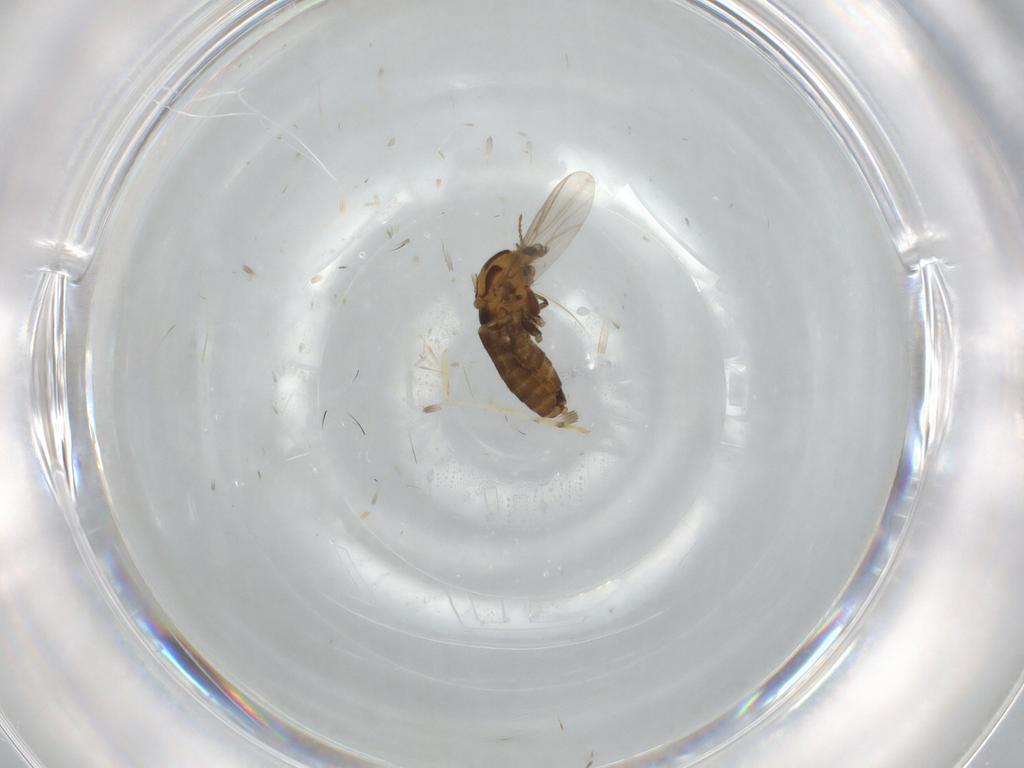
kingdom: Animalia
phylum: Arthropoda
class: Insecta
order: Diptera
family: Chironomidae
